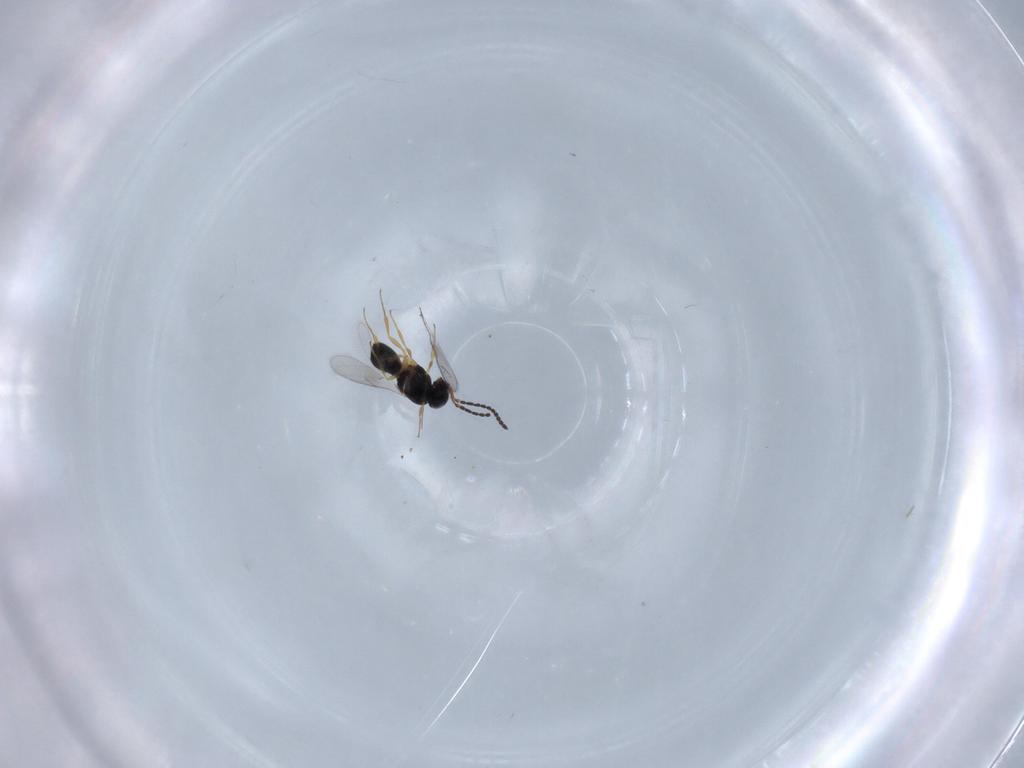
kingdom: Animalia
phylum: Arthropoda
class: Insecta
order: Hymenoptera
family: Scelionidae
